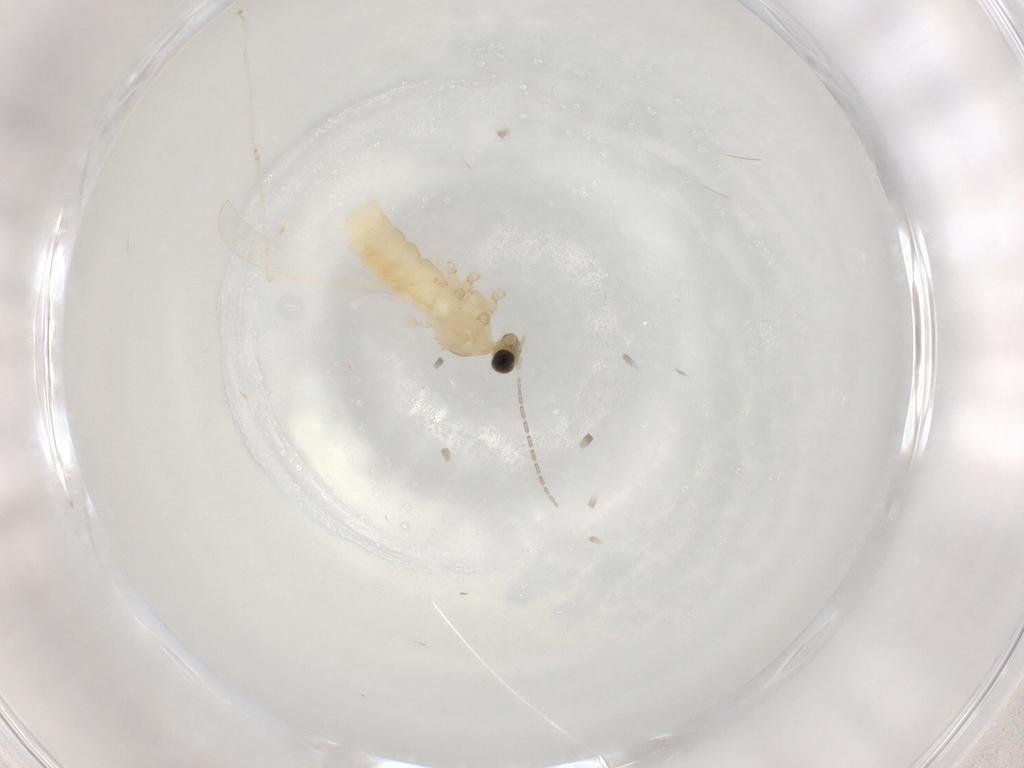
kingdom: Animalia
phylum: Arthropoda
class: Insecta
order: Diptera
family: Cecidomyiidae
